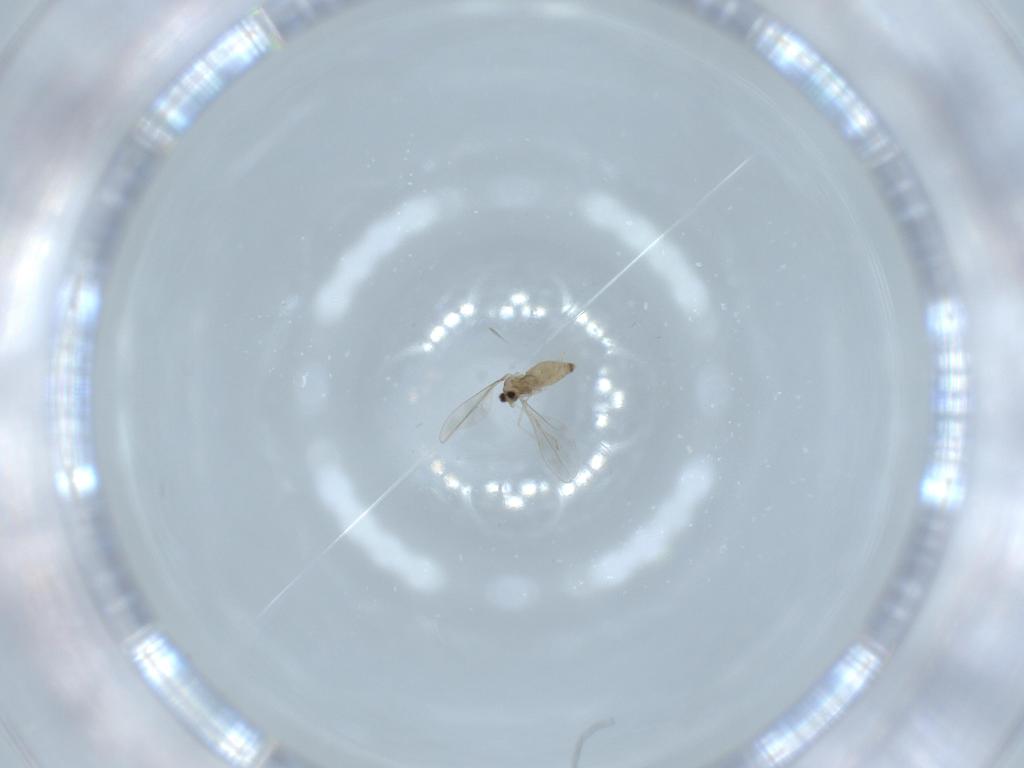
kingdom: Animalia
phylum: Arthropoda
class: Insecta
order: Diptera
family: Cecidomyiidae
